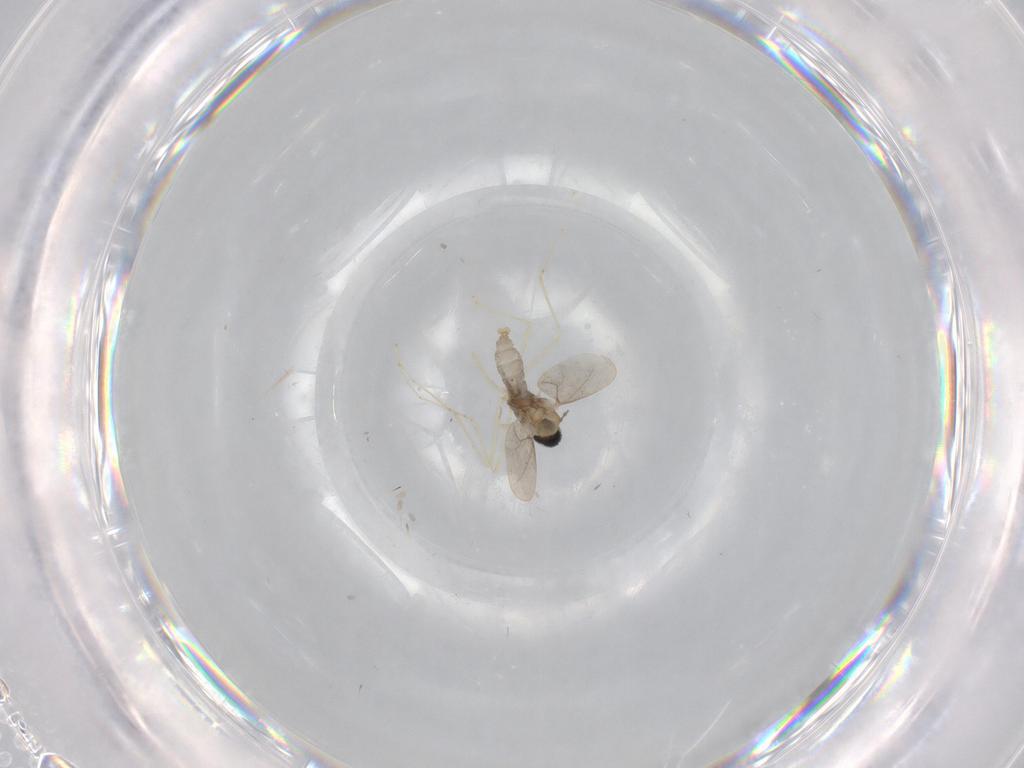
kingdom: Animalia
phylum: Arthropoda
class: Insecta
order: Diptera
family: Cecidomyiidae
